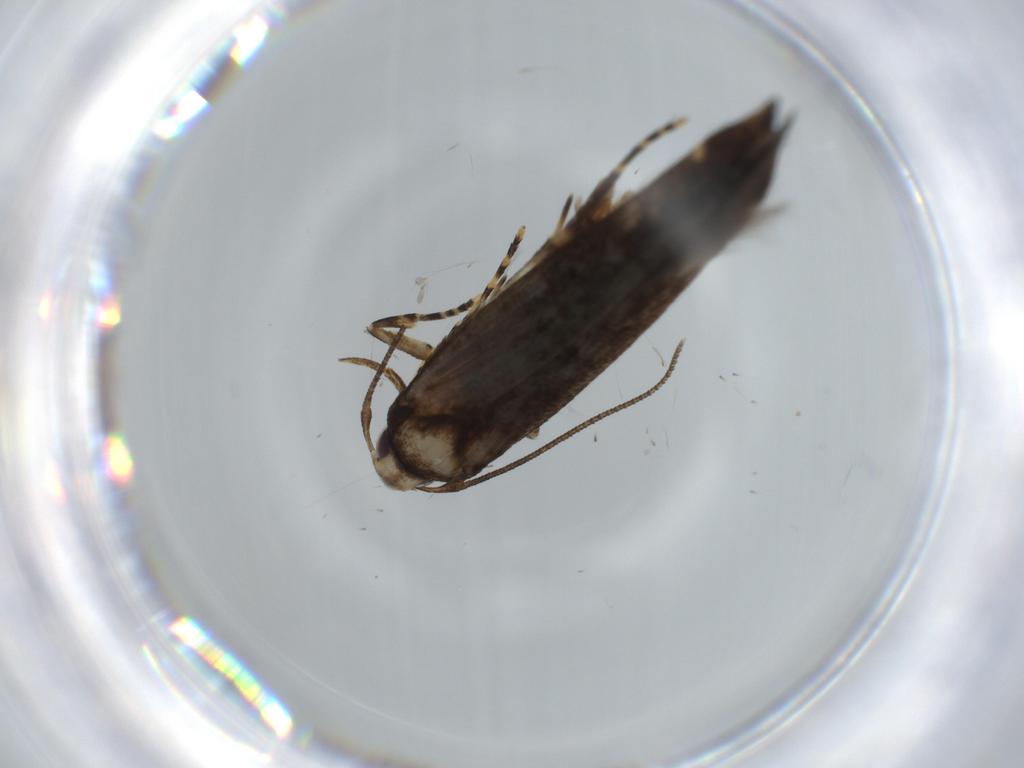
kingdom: Animalia
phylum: Arthropoda
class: Insecta
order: Lepidoptera
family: Cosmopterigidae
